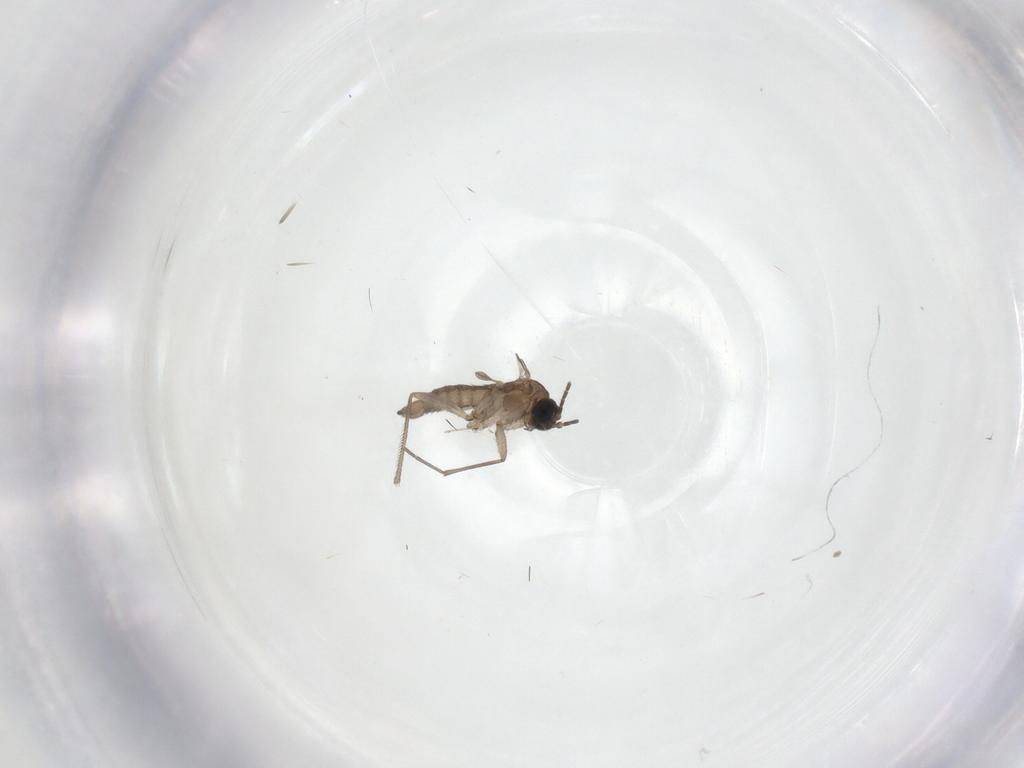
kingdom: Animalia
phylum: Arthropoda
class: Insecta
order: Diptera
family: Sciaridae
